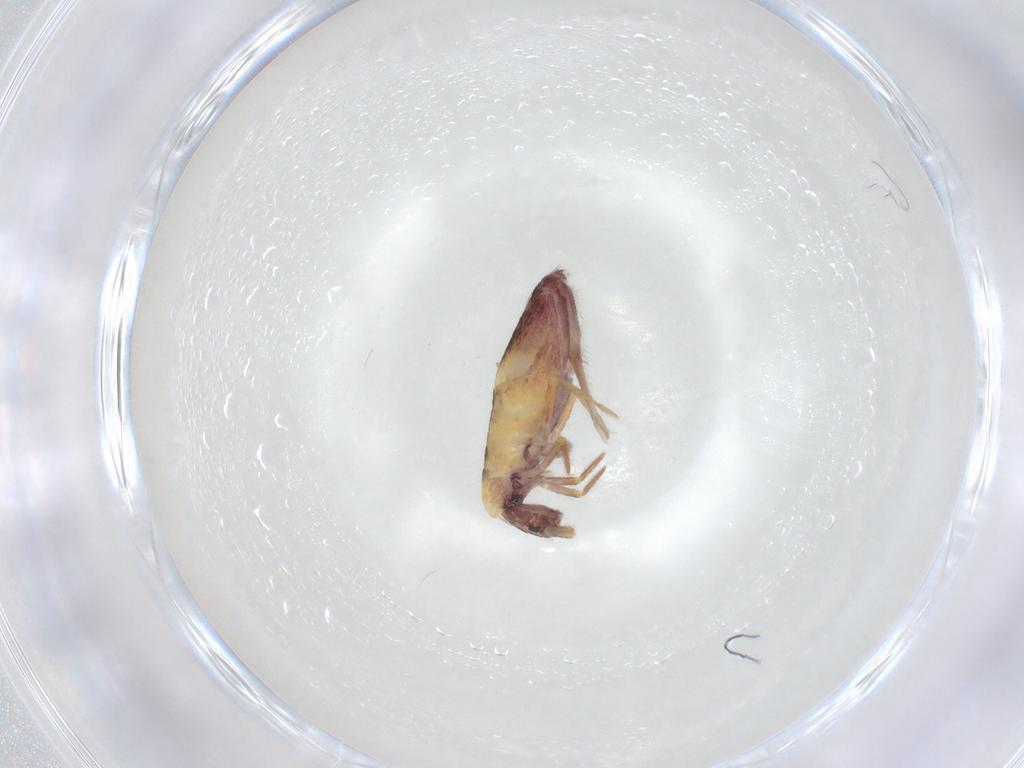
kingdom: Animalia
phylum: Arthropoda
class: Collembola
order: Entomobryomorpha
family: Entomobryidae
